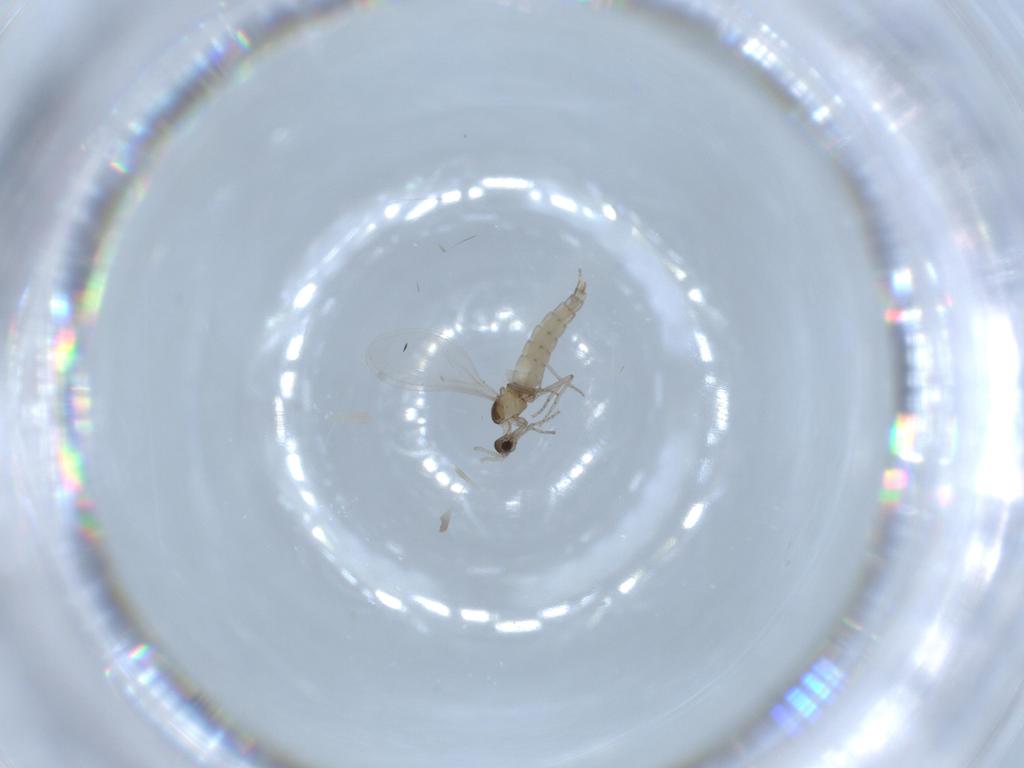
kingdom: Animalia
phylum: Arthropoda
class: Insecta
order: Diptera
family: Cecidomyiidae
